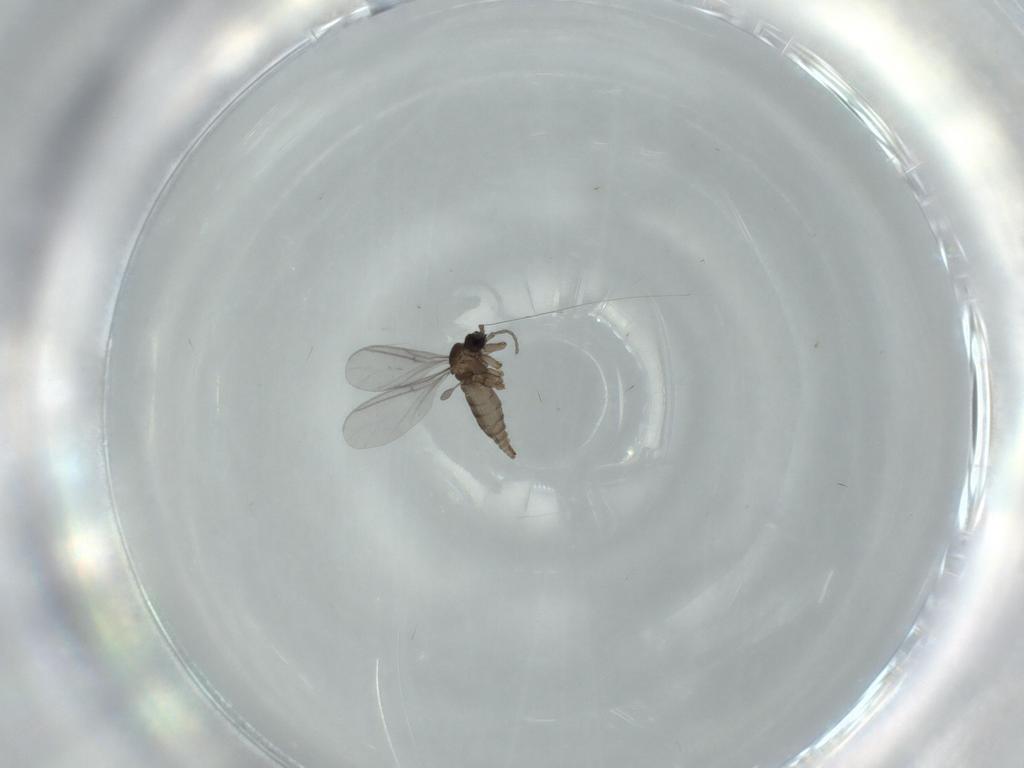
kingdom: Animalia
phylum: Arthropoda
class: Insecta
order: Diptera
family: Sciaridae
